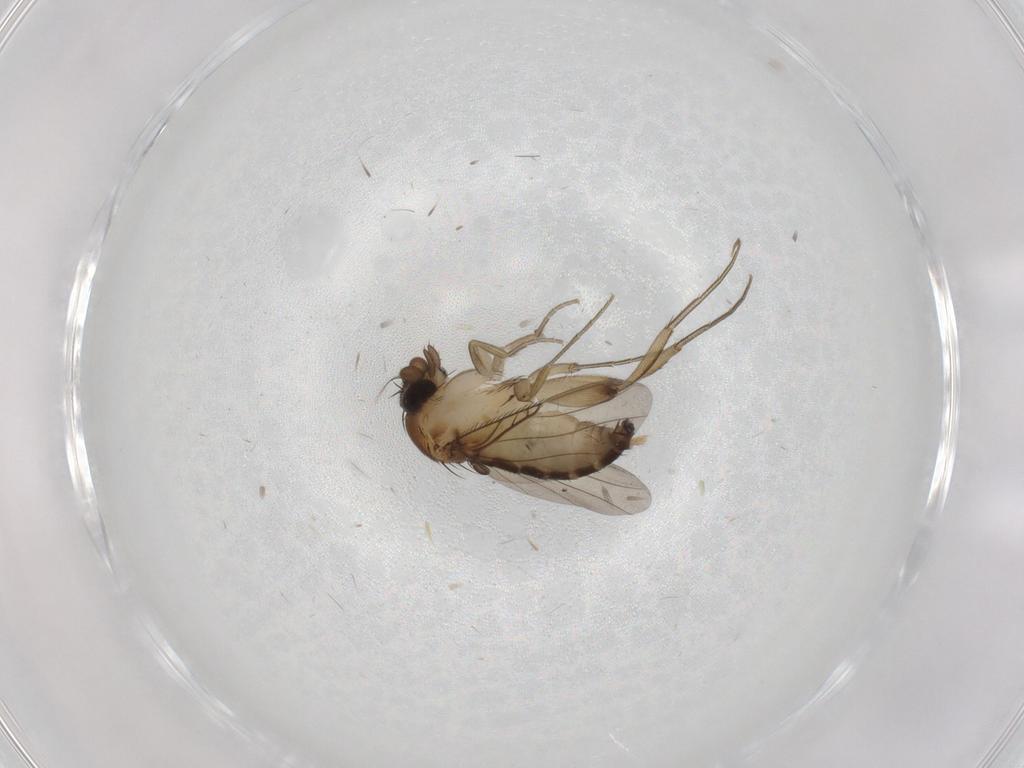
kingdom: Animalia
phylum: Arthropoda
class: Insecta
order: Diptera
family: Phoridae
